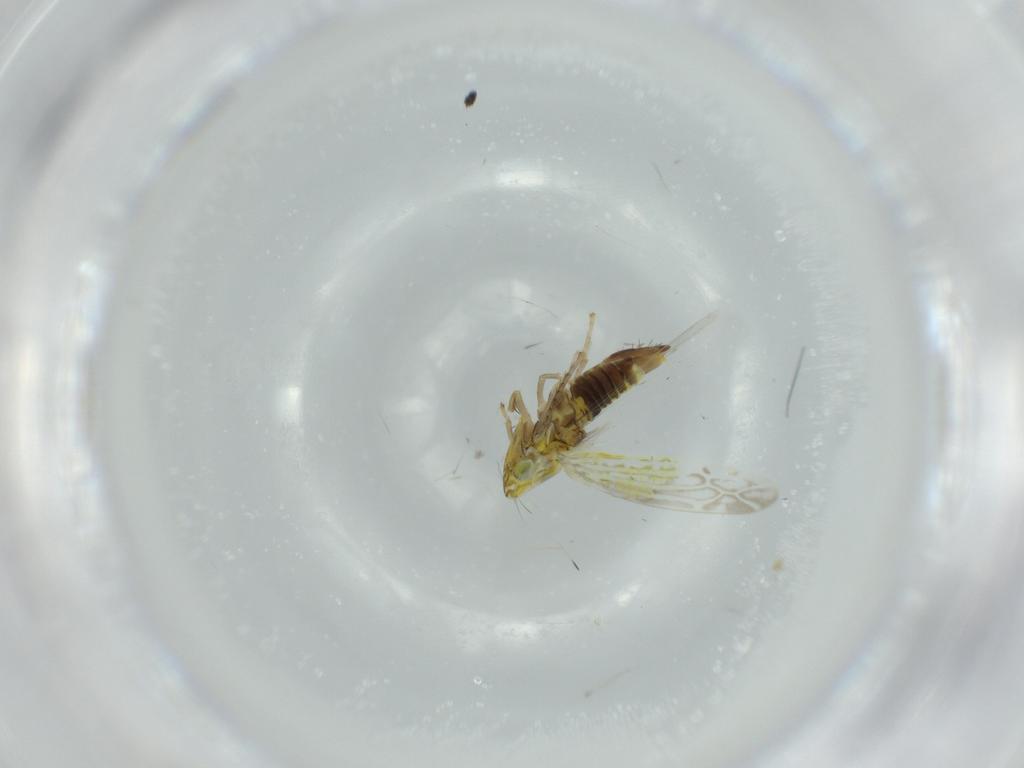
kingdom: Animalia
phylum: Arthropoda
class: Insecta
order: Hemiptera
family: Cicadellidae
